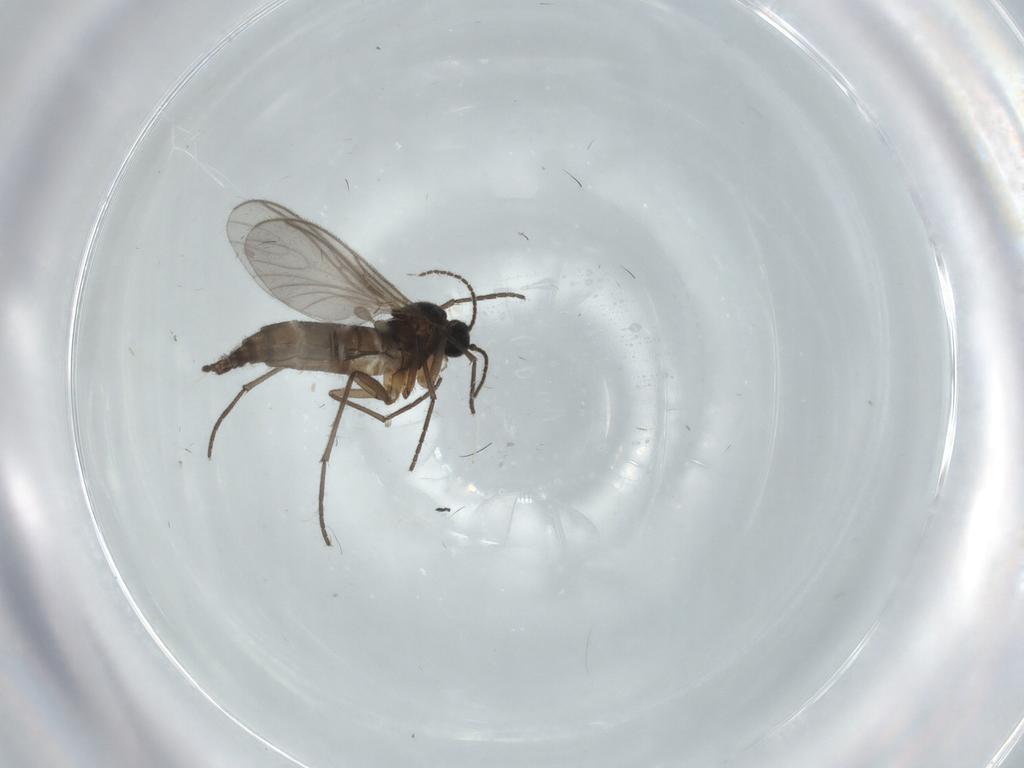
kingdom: Animalia
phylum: Arthropoda
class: Insecta
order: Diptera
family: Sciaridae
